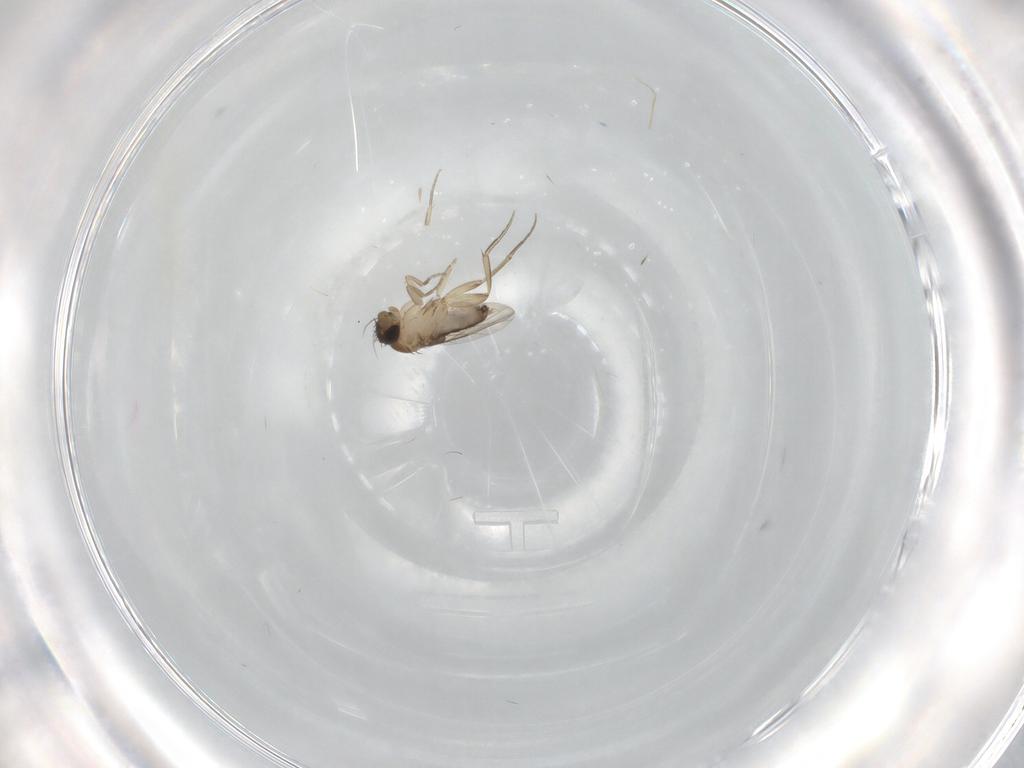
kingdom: Animalia
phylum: Arthropoda
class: Insecta
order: Diptera
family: Phoridae
